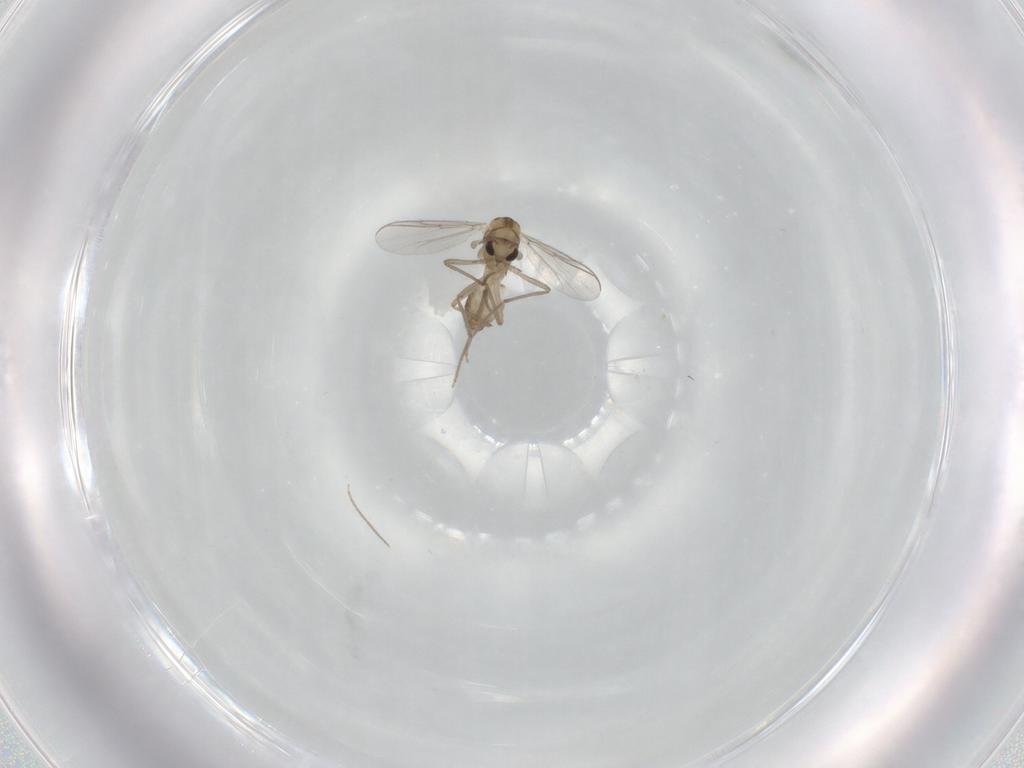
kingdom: Animalia
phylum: Arthropoda
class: Insecta
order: Diptera
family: Chironomidae
